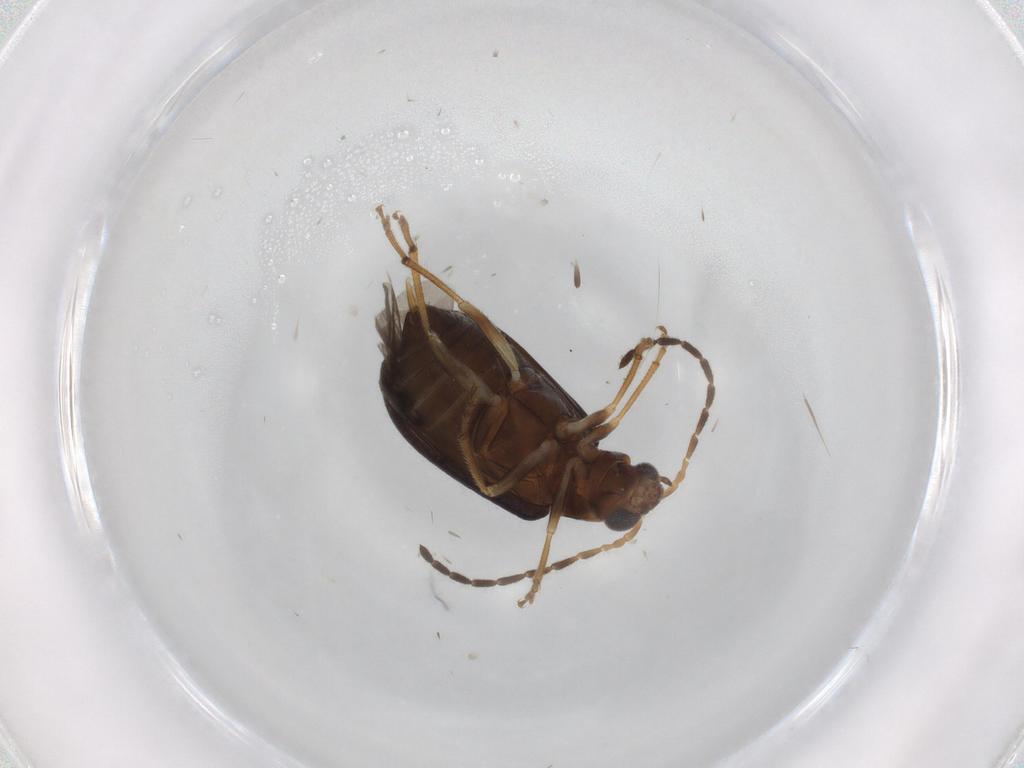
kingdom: Animalia
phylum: Arthropoda
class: Insecta
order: Coleoptera
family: Chrysomelidae
